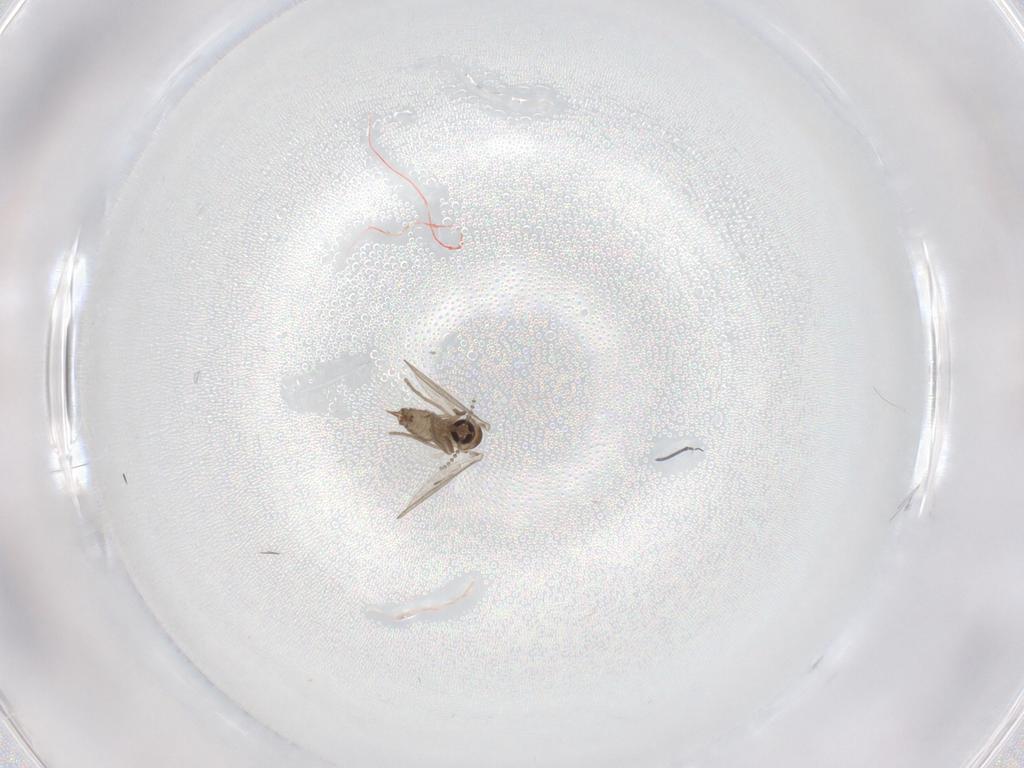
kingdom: Animalia
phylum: Arthropoda
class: Insecta
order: Diptera
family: Psychodidae
